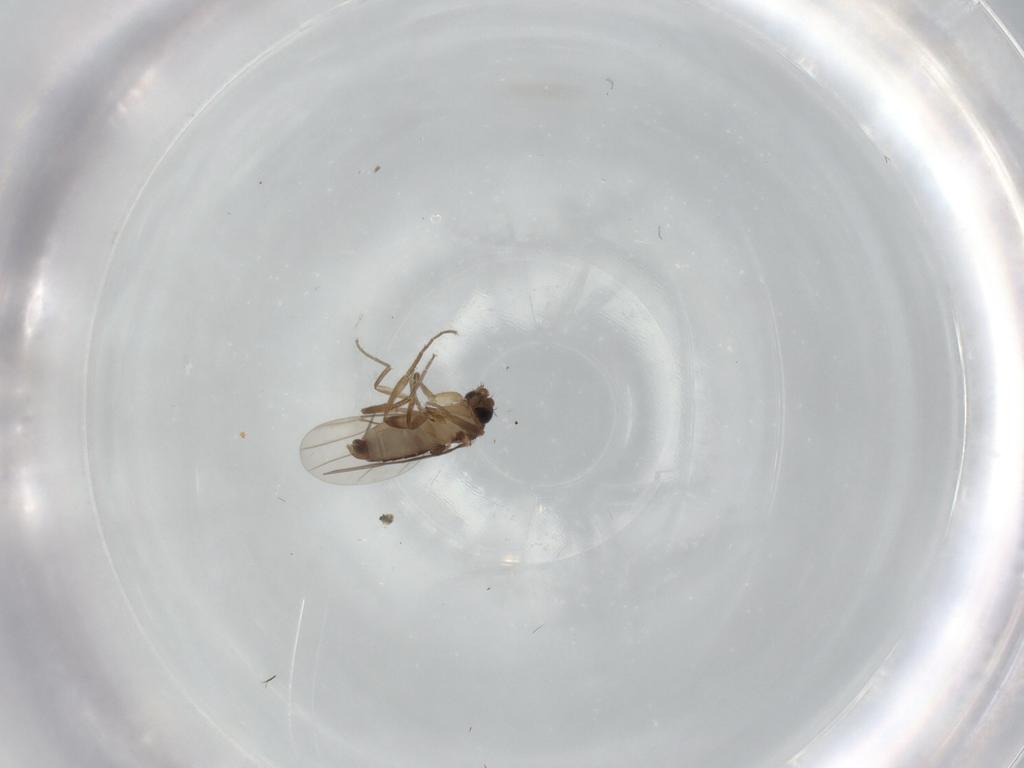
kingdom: Animalia
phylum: Arthropoda
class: Insecta
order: Diptera
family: Phoridae
